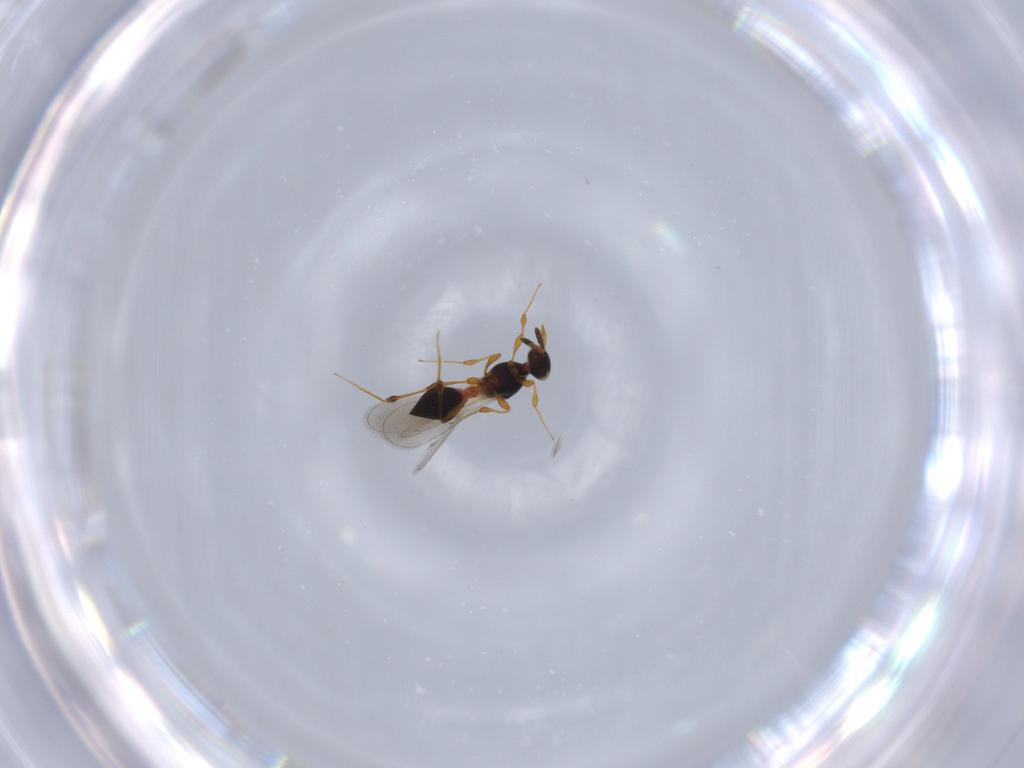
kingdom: Animalia
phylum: Arthropoda
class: Insecta
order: Hymenoptera
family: Platygastridae
